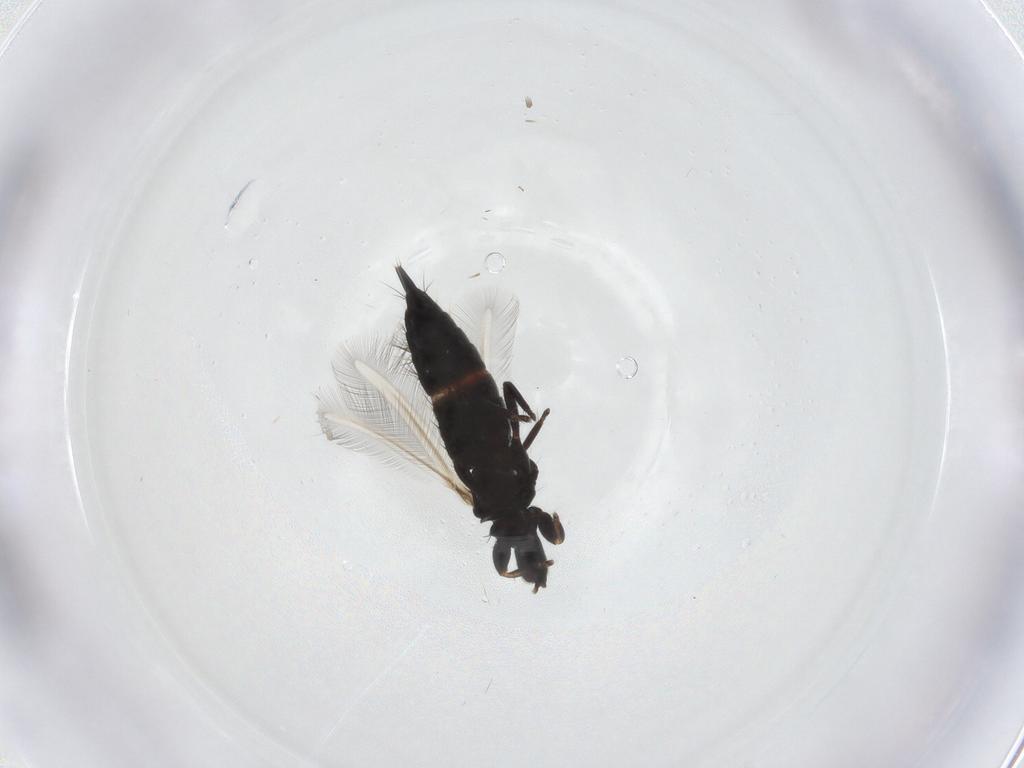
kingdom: Animalia
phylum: Arthropoda
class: Insecta
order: Thysanoptera
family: Phlaeothripidae
